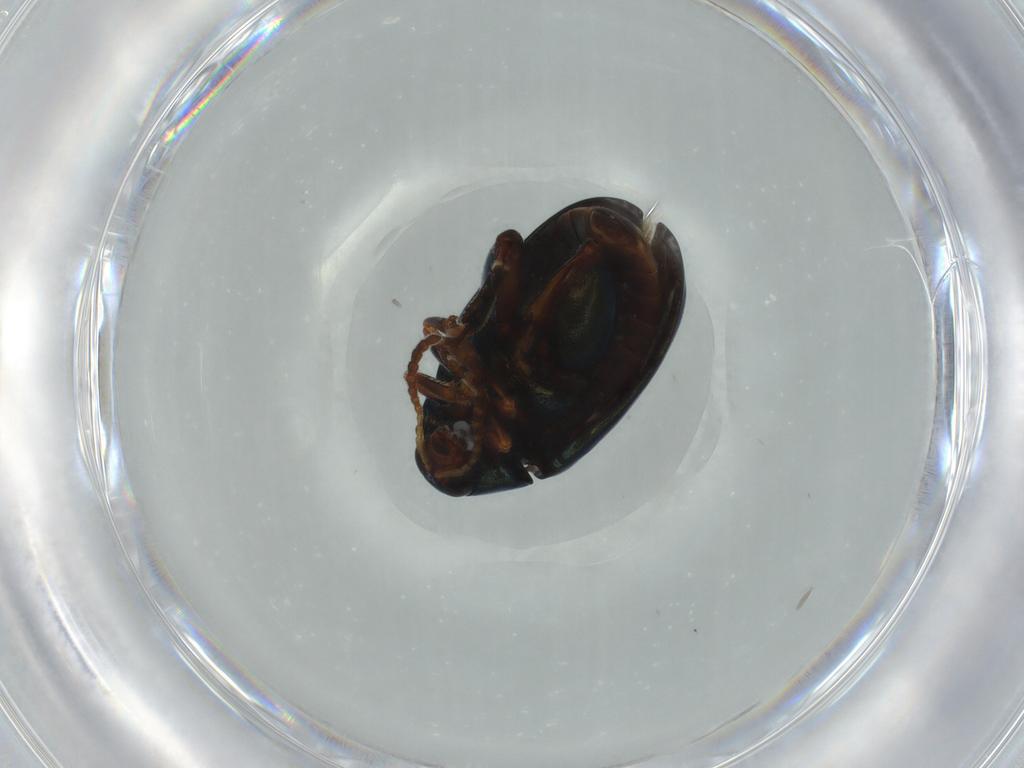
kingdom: Animalia
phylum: Arthropoda
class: Insecta
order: Coleoptera
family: Chrysomelidae
